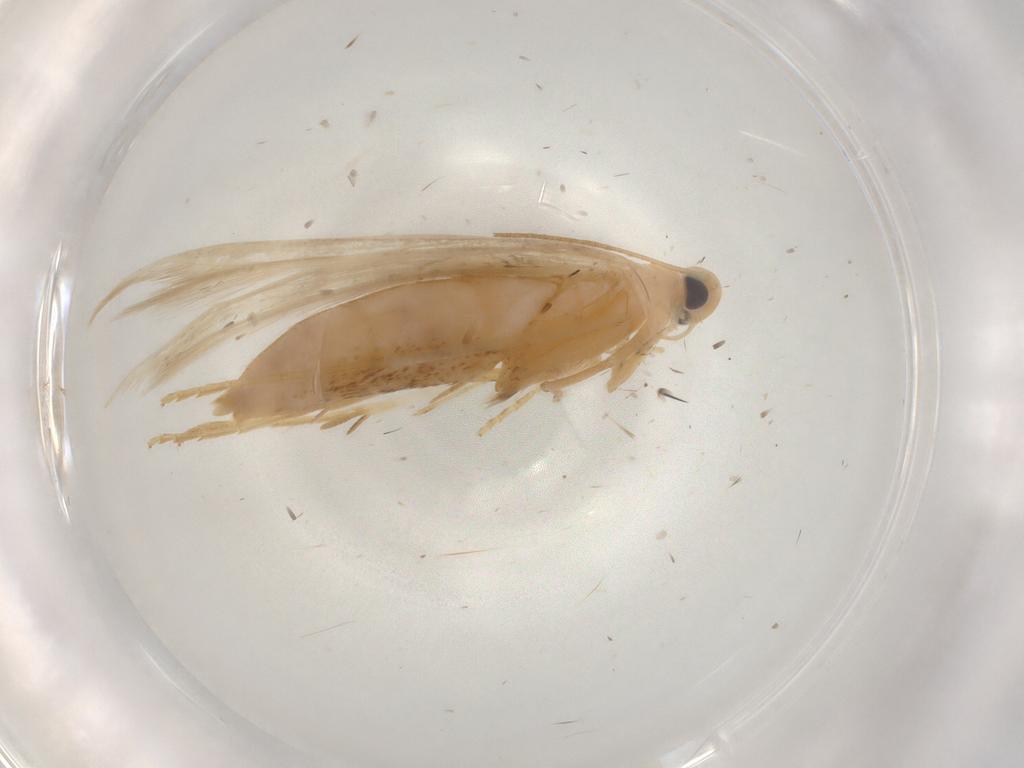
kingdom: Animalia
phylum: Arthropoda
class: Insecta
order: Lepidoptera
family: Batrachedridae
